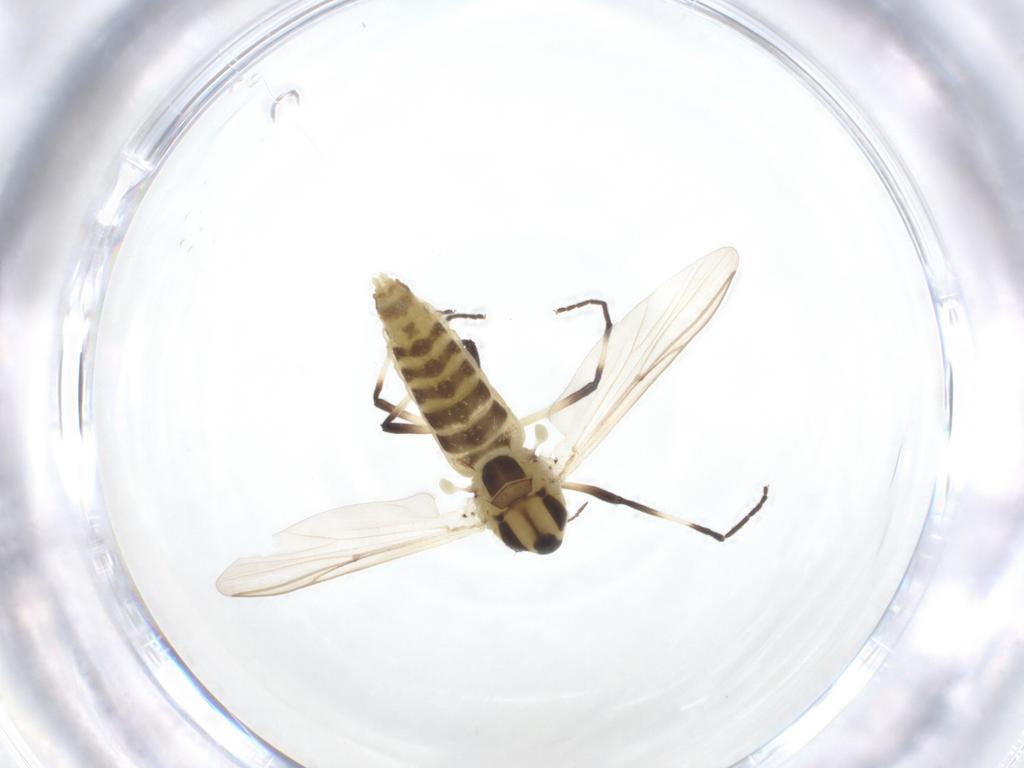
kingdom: Animalia
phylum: Arthropoda
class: Insecta
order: Diptera
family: Chironomidae
